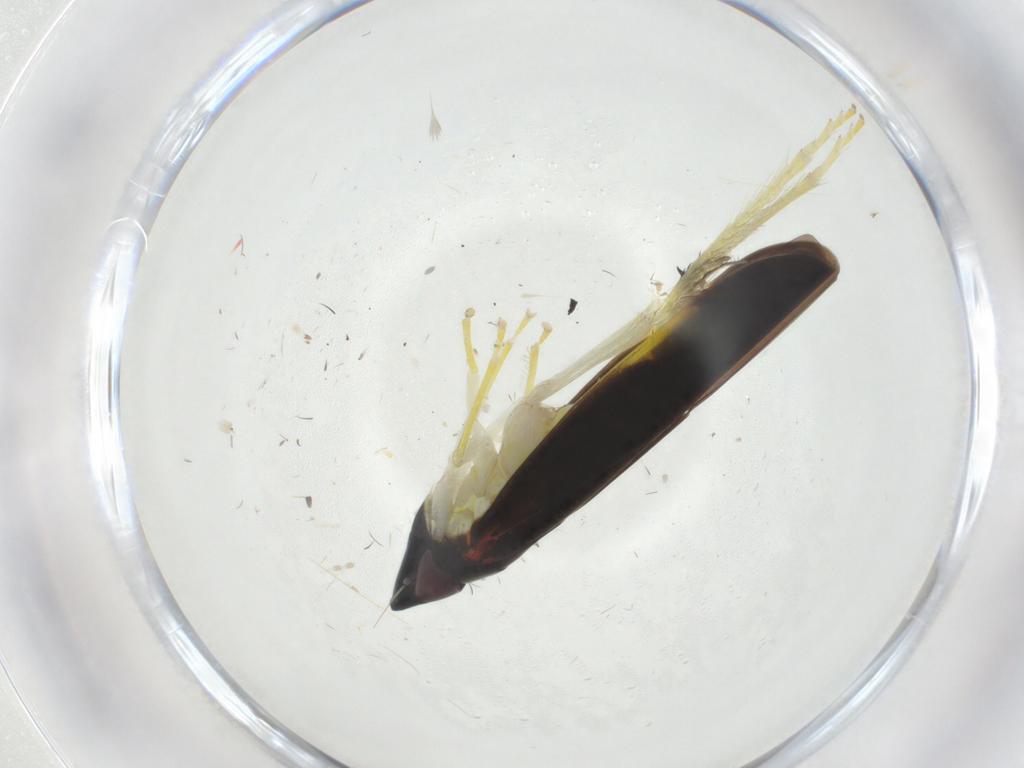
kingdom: Animalia
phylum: Arthropoda
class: Insecta
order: Hemiptera
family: Cicadellidae
